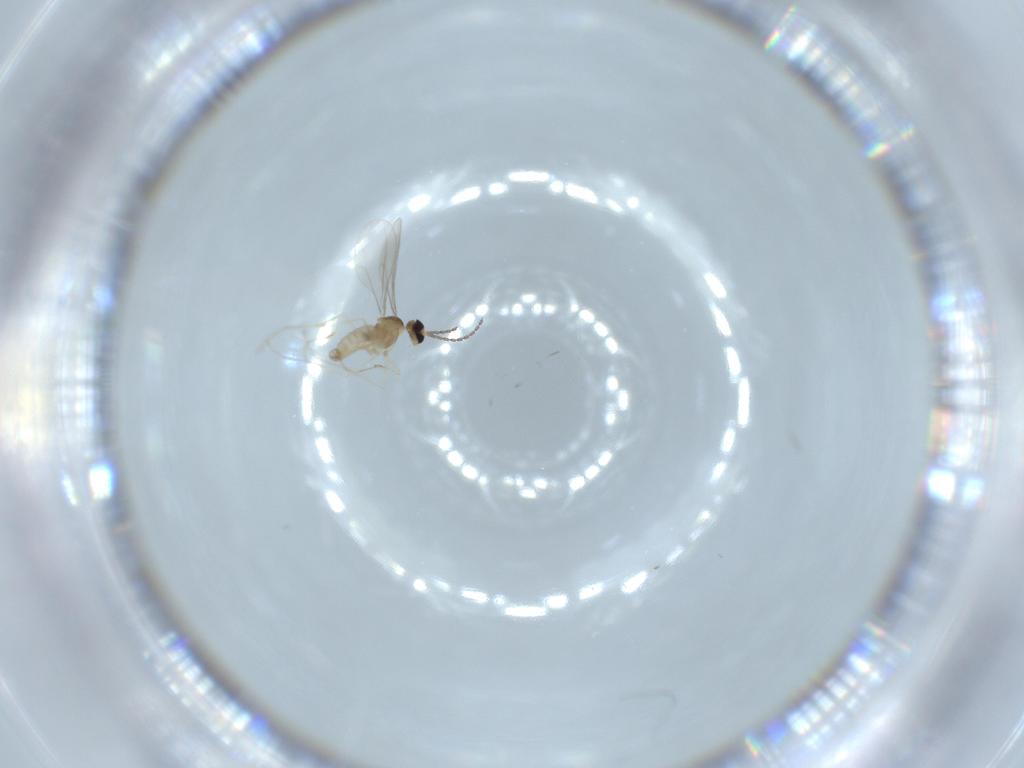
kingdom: Animalia
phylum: Arthropoda
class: Insecta
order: Diptera
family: Cecidomyiidae
